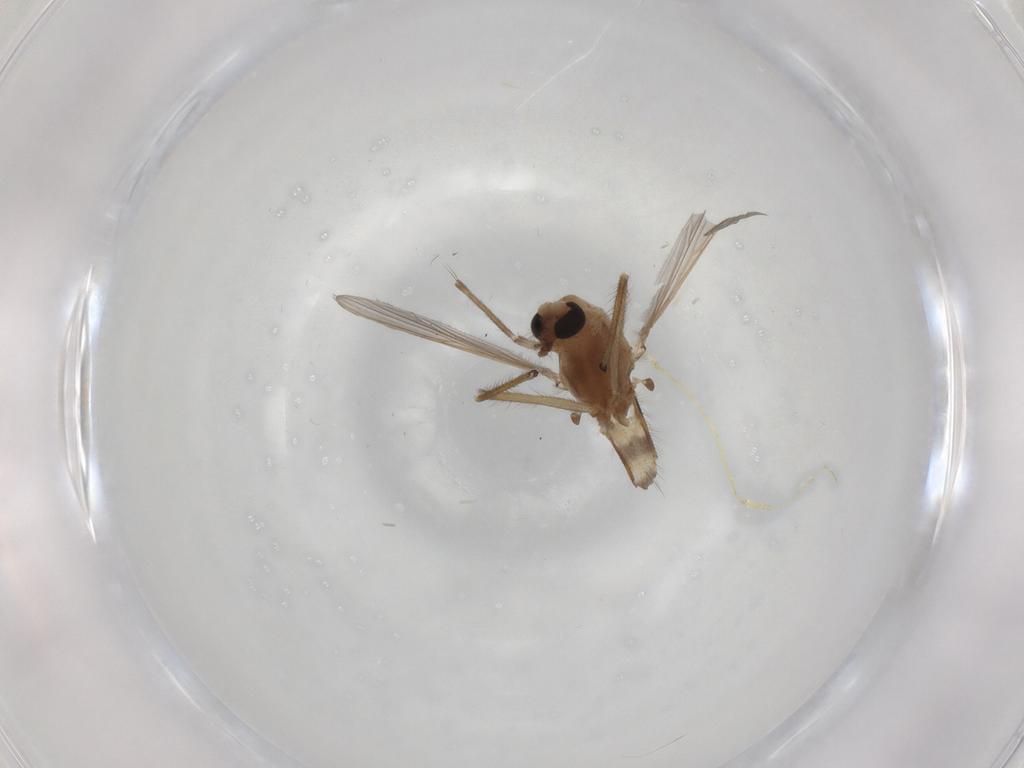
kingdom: Animalia
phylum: Arthropoda
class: Insecta
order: Diptera
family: Chironomidae
